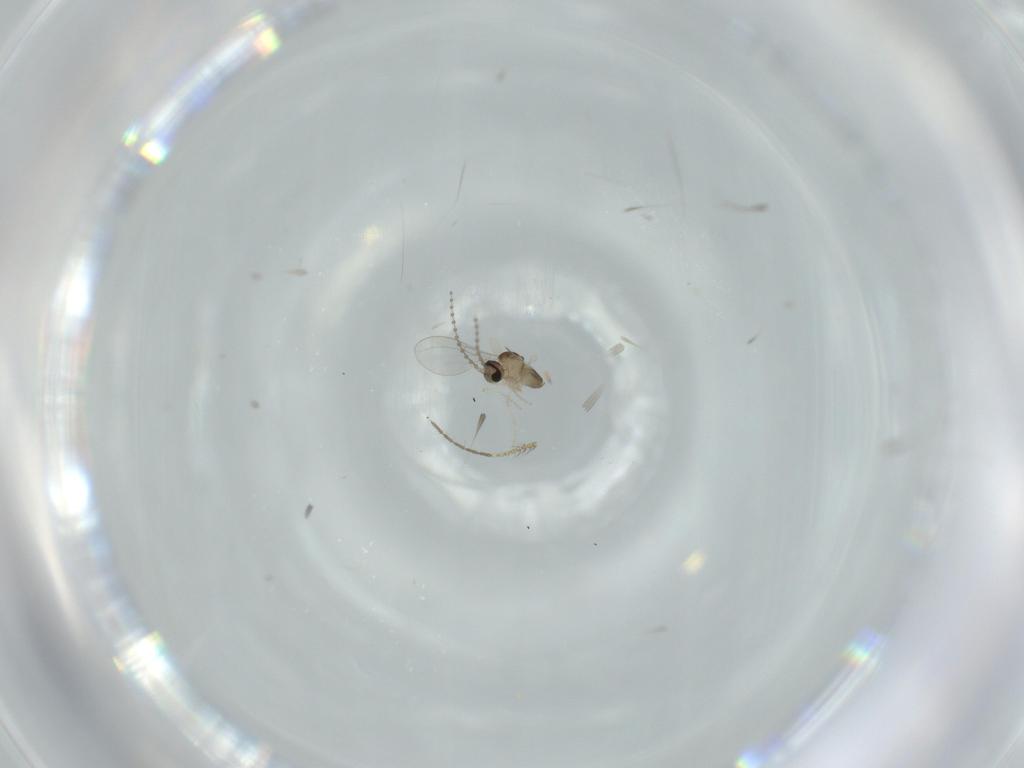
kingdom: Animalia
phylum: Arthropoda
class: Insecta
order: Diptera
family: Cecidomyiidae
